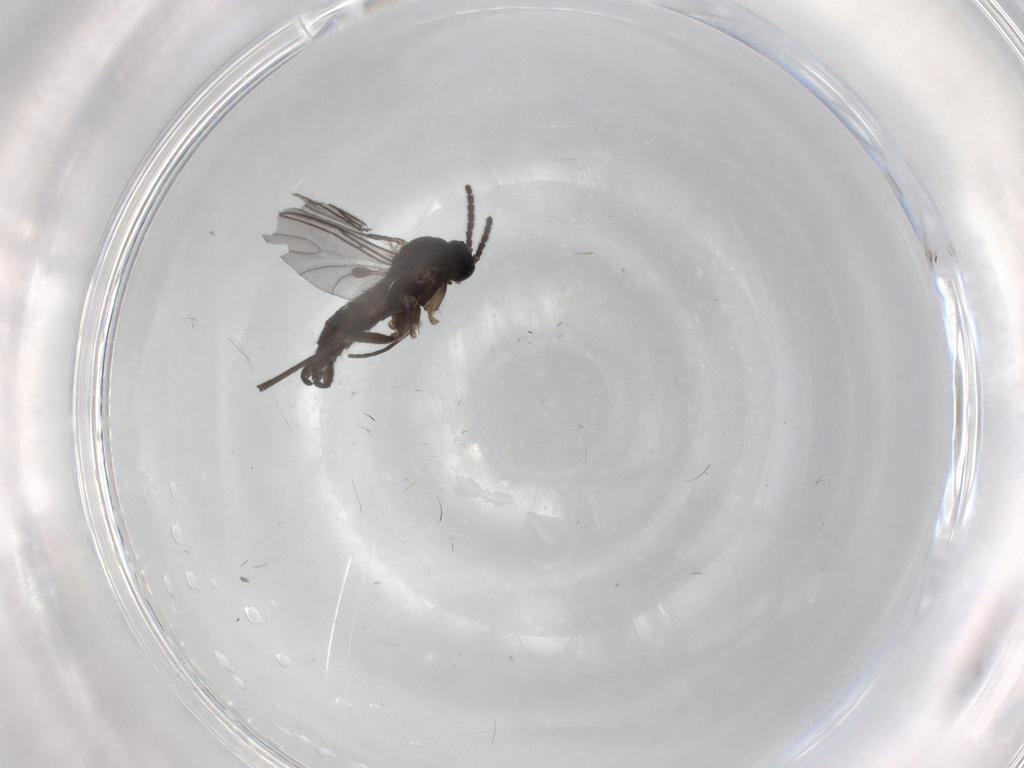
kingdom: Animalia
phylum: Arthropoda
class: Insecta
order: Diptera
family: Sciaridae
